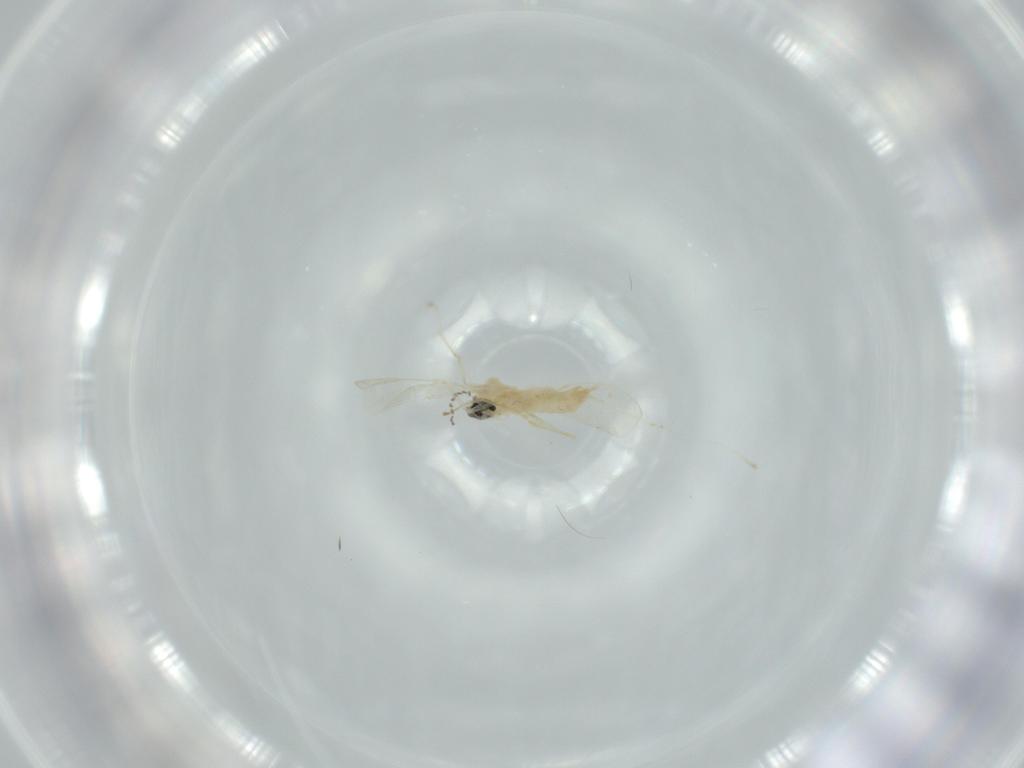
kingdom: Animalia
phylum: Arthropoda
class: Insecta
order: Diptera
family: Cecidomyiidae
